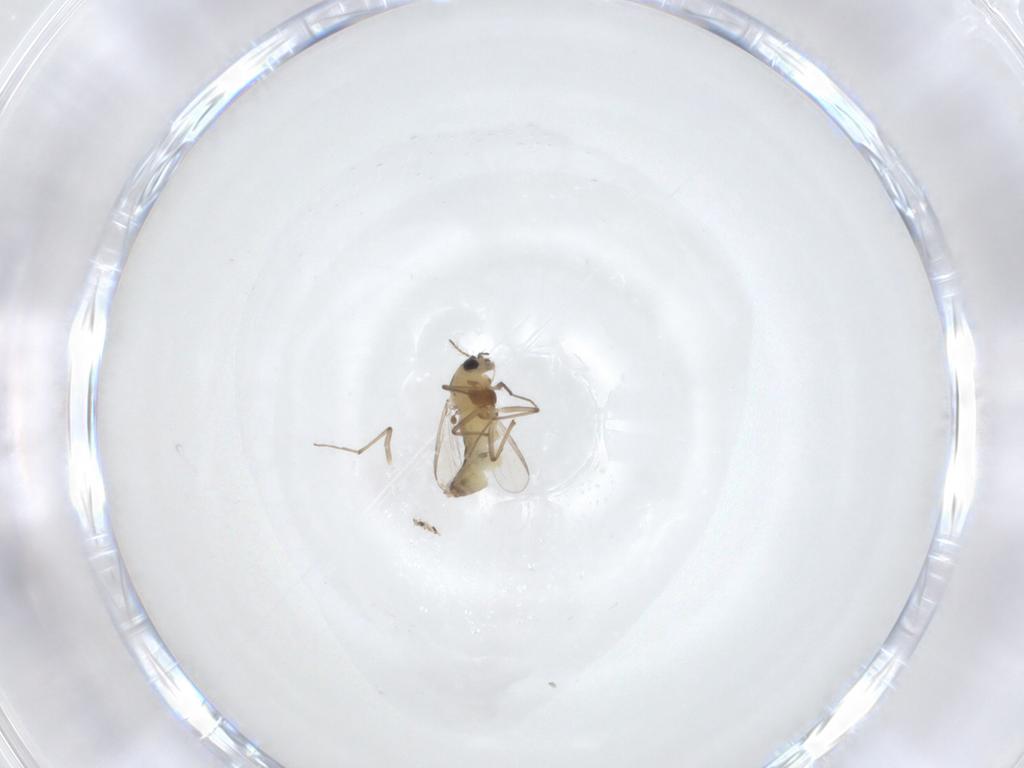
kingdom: Animalia
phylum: Arthropoda
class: Insecta
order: Diptera
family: Chironomidae
